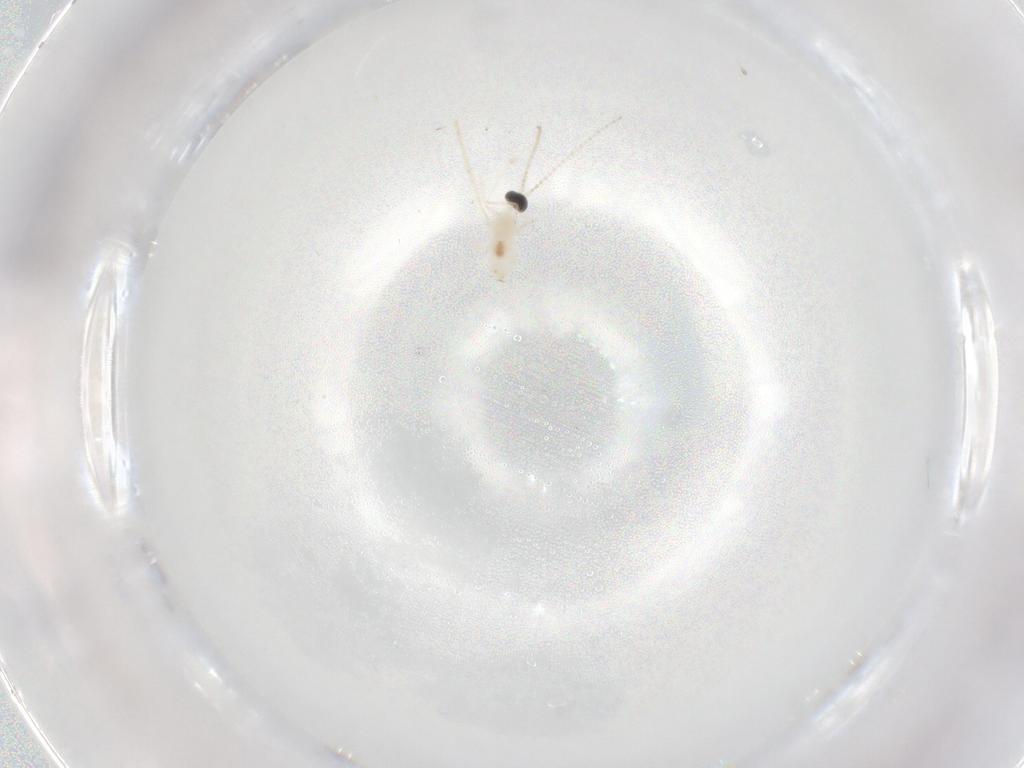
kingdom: Animalia
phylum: Arthropoda
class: Insecta
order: Diptera
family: Cecidomyiidae
